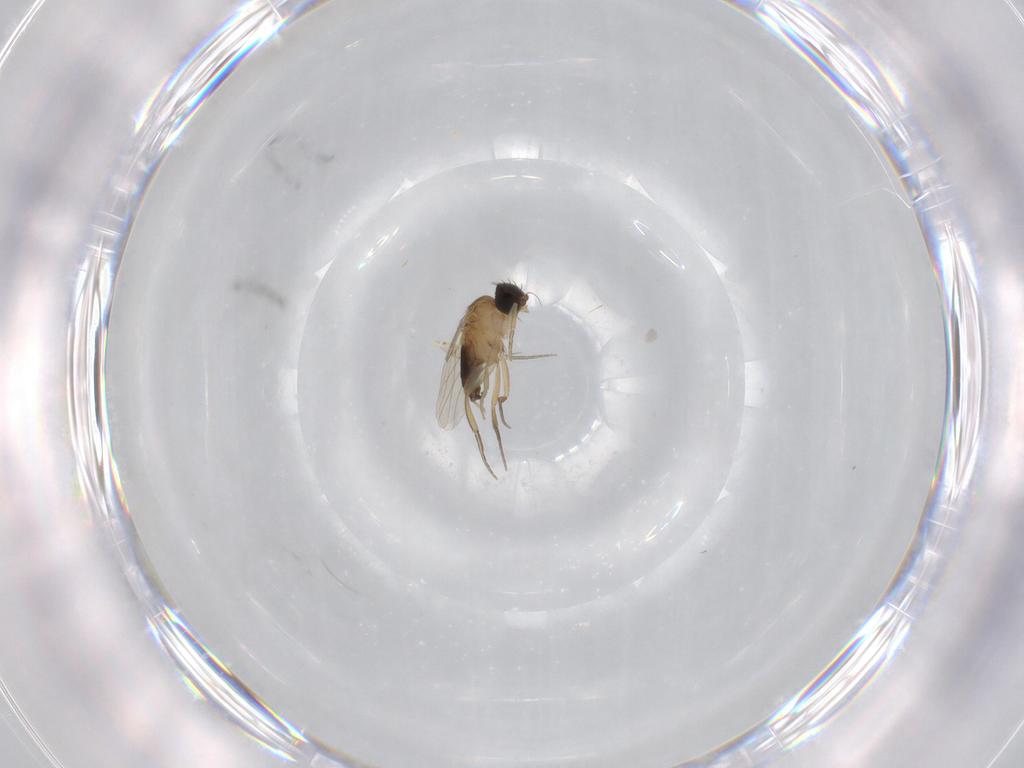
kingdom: Animalia
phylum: Arthropoda
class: Insecta
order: Diptera
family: Phoridae
